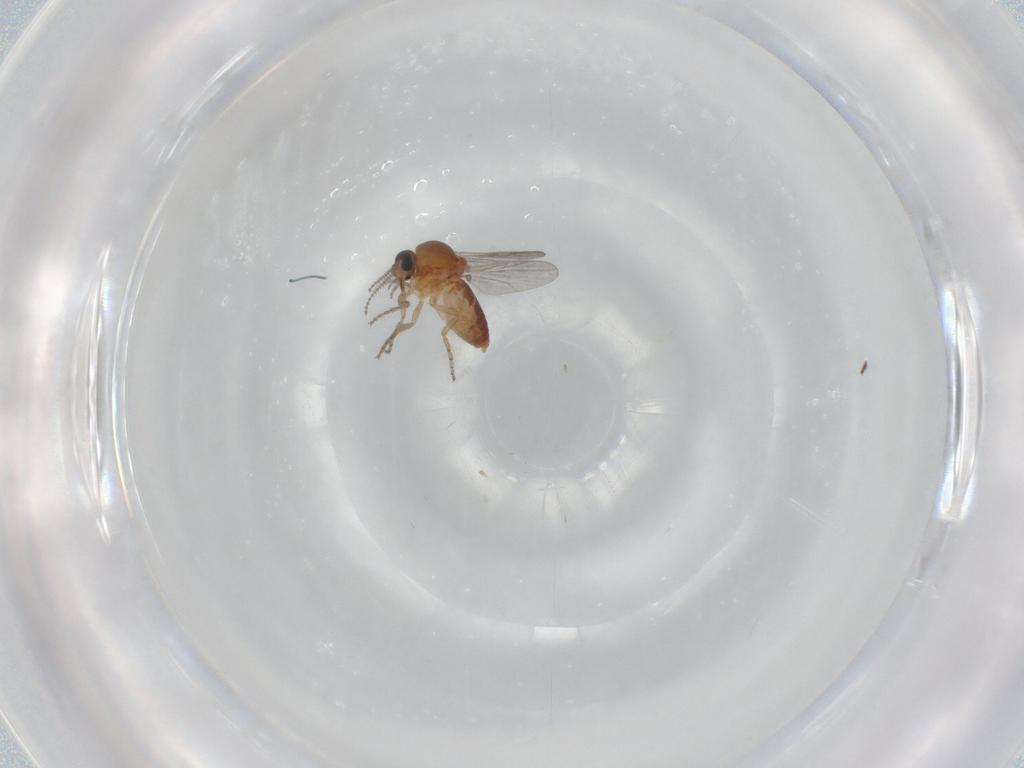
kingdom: Animalia
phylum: Arthropoda
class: Insecta
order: Diptera
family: Ceratopogonidae
